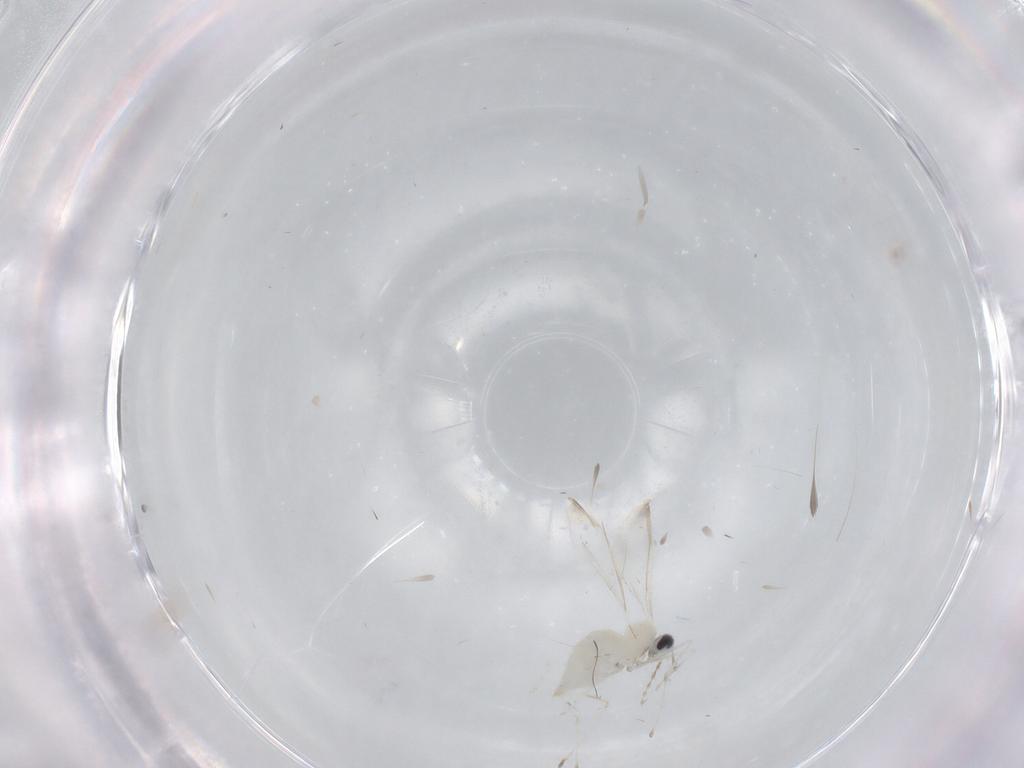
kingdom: Animalia
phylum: Arthropoda
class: Insecta
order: Diptera
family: Cecidomyiidae
